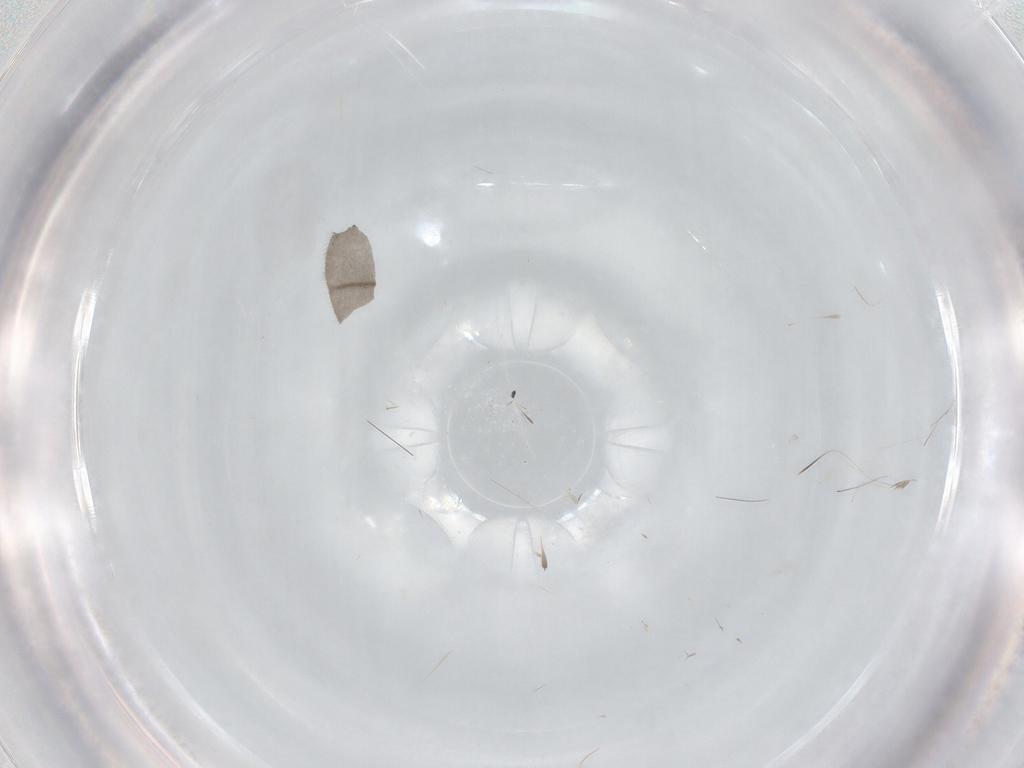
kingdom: Animalia
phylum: Arthropoda
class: Insecta
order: Diptera
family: Bibionidae
